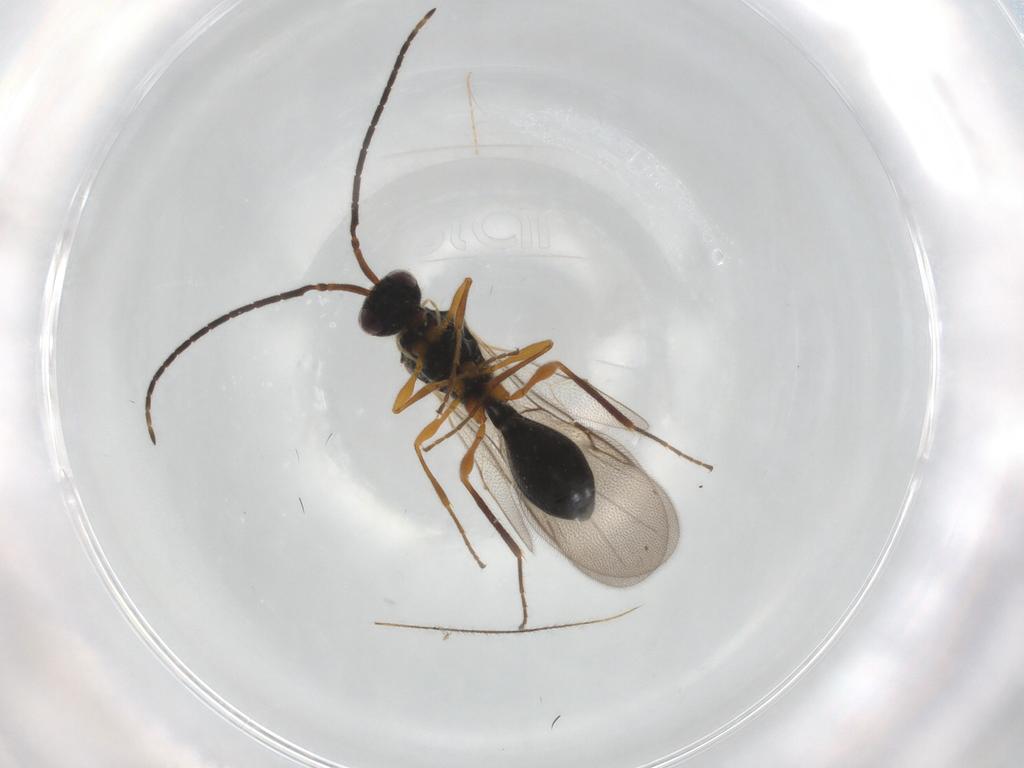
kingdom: Animalia
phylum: Arthropoda
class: Insecta
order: Hymenoptera
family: Diapriidae
